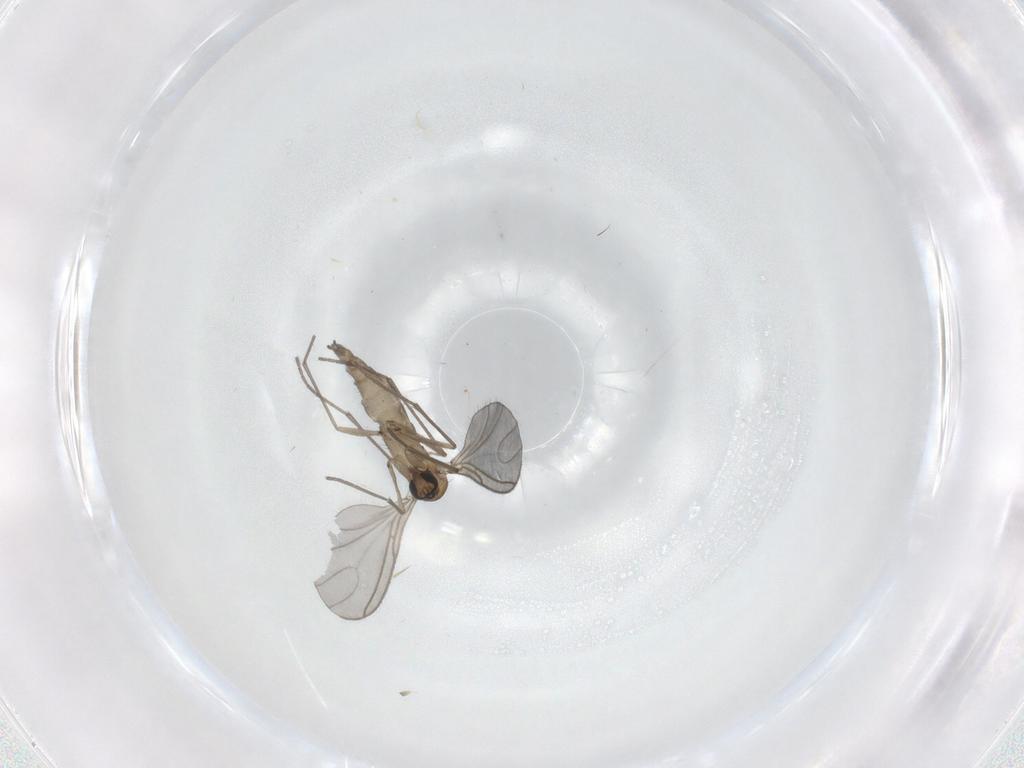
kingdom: Animalia
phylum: Arthropoda
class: Insecta
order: Diptera
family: Sciaridae
